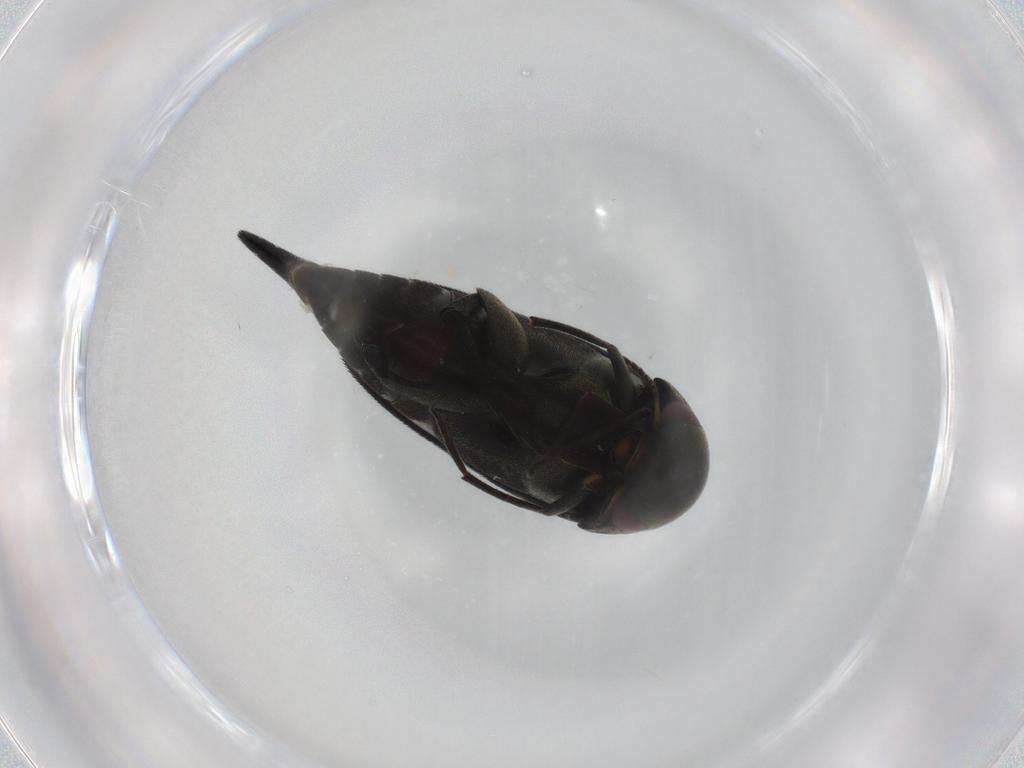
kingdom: Animalia
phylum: Arthropoda
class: Insecta
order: Coleoptera
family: Mordellidae
